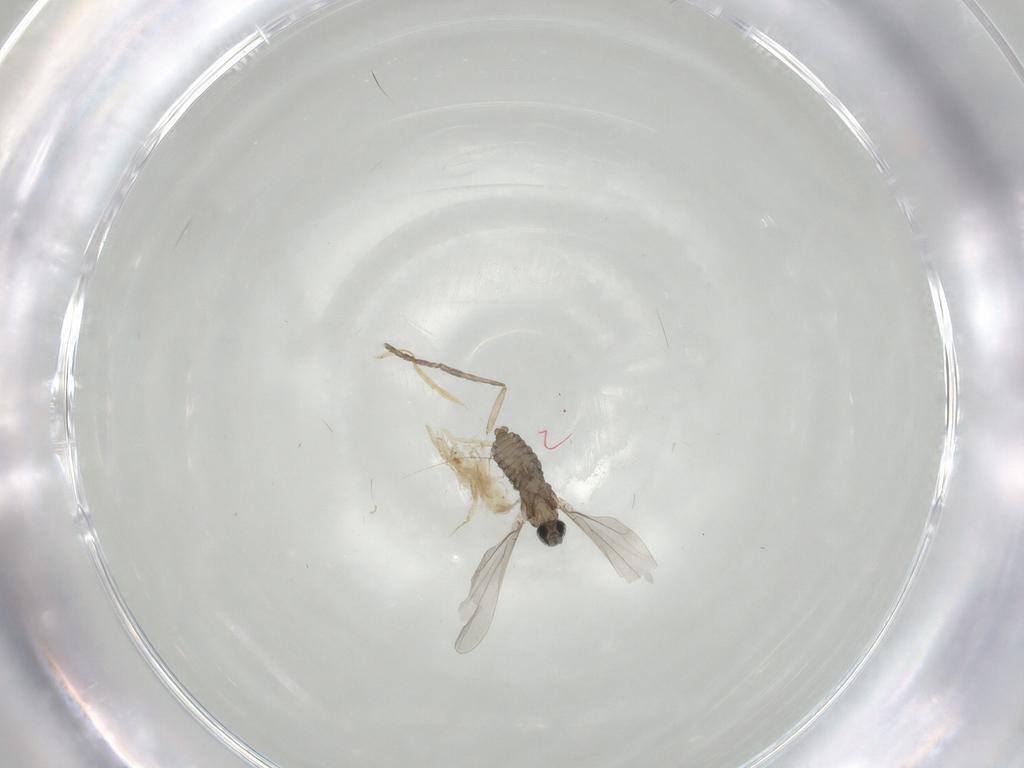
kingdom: Animalia
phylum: Arthropoda
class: Insecta
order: Diptera
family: Cecidomyiidae
